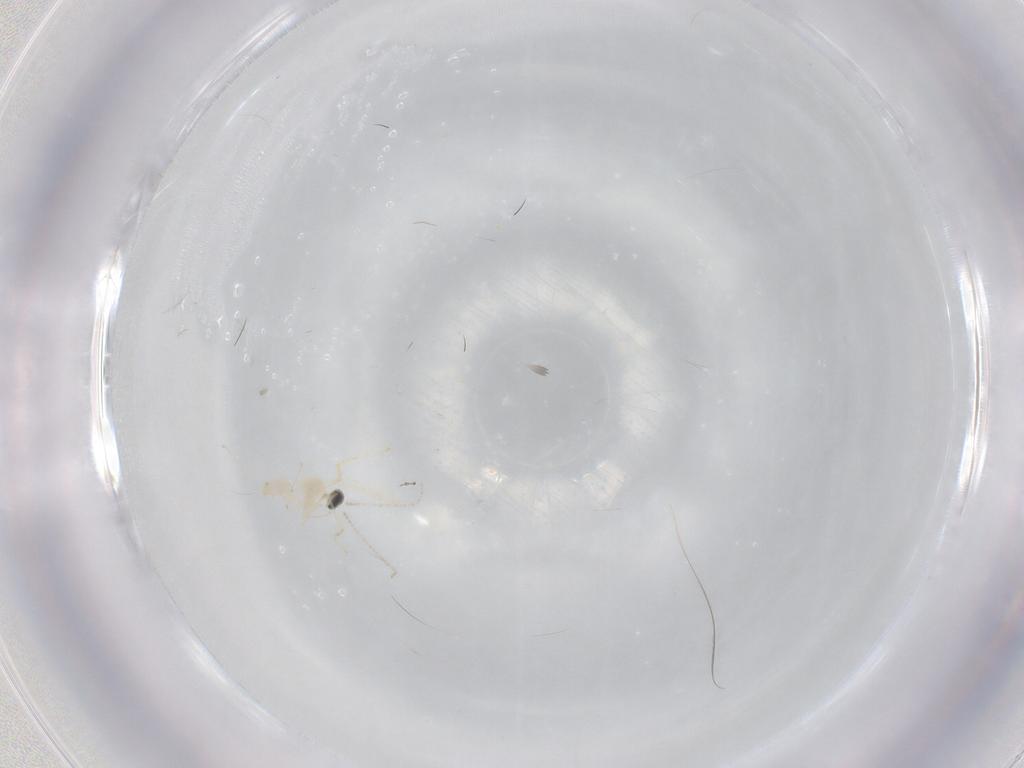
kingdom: Animalia
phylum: Arthropoda
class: Insecta
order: Diptera
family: Cecidomyiidae
